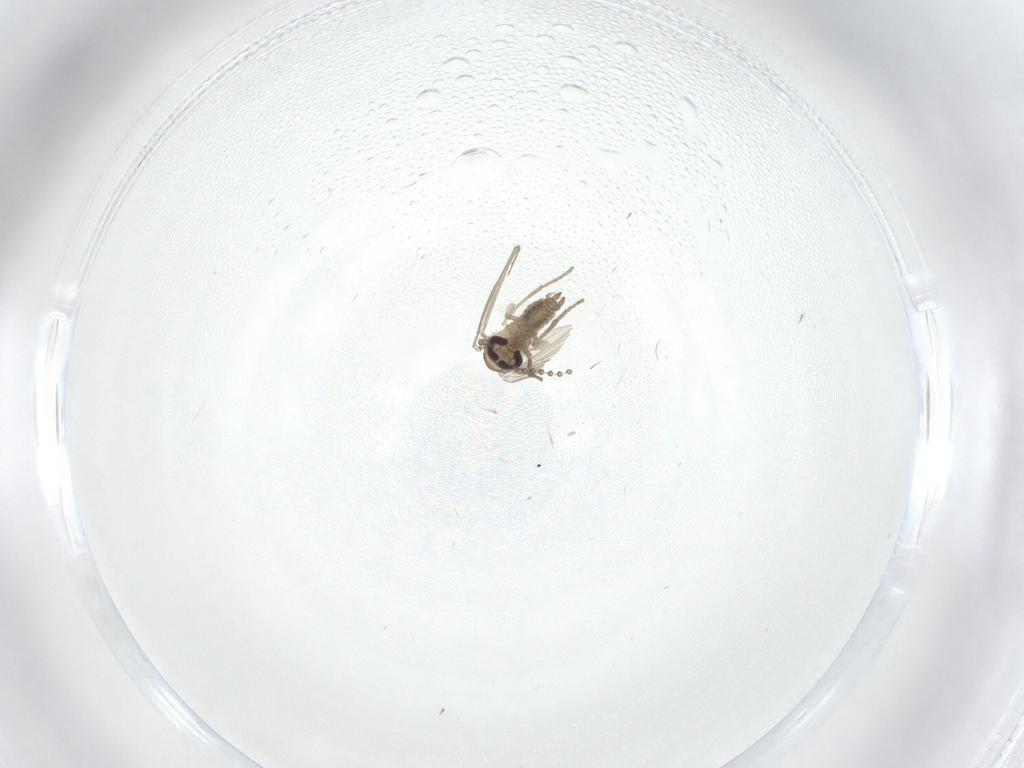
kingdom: Animalia
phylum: Arthropoda
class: Insecta
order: Diptera
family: Psychodidae
